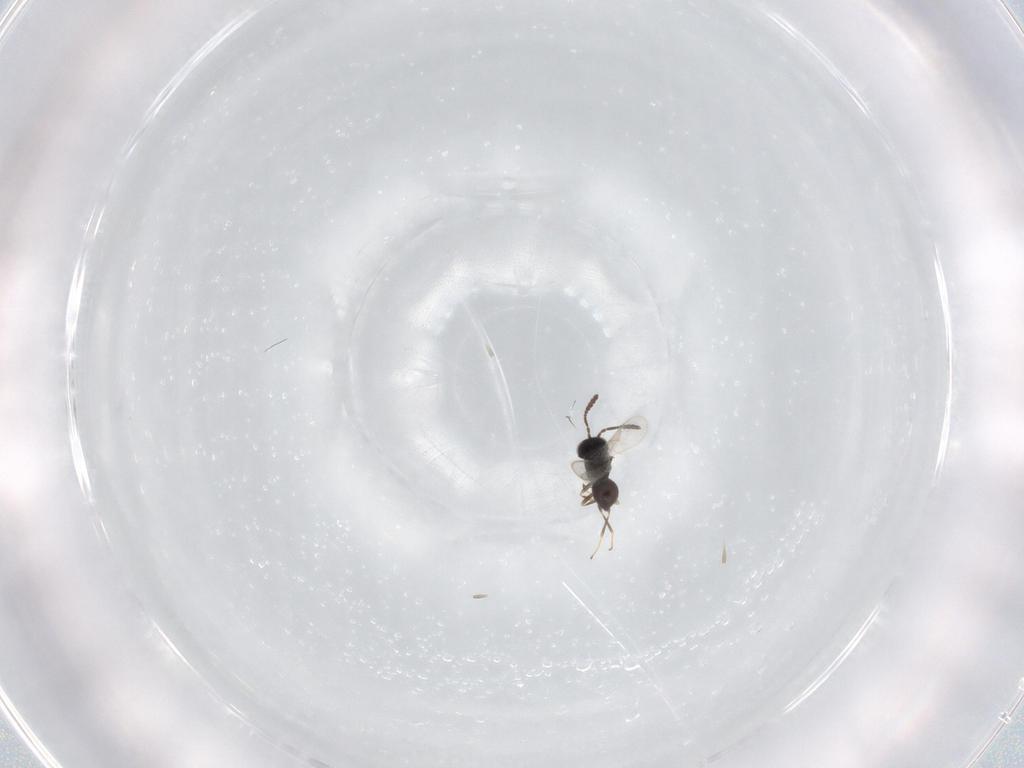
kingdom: Animalia
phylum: Arthropoda
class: Insecta
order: Hymenoptera
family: Scelionidae
